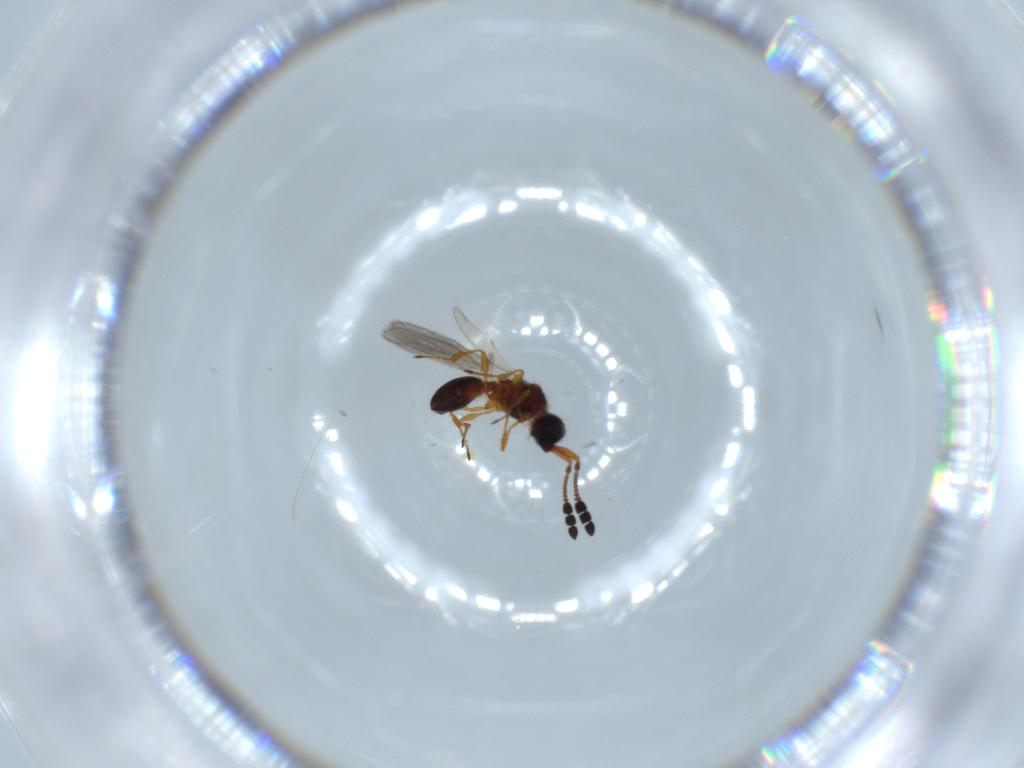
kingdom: Animalia
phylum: Arthropoda
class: Insecta
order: Hymenoptera
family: Diapriidae
